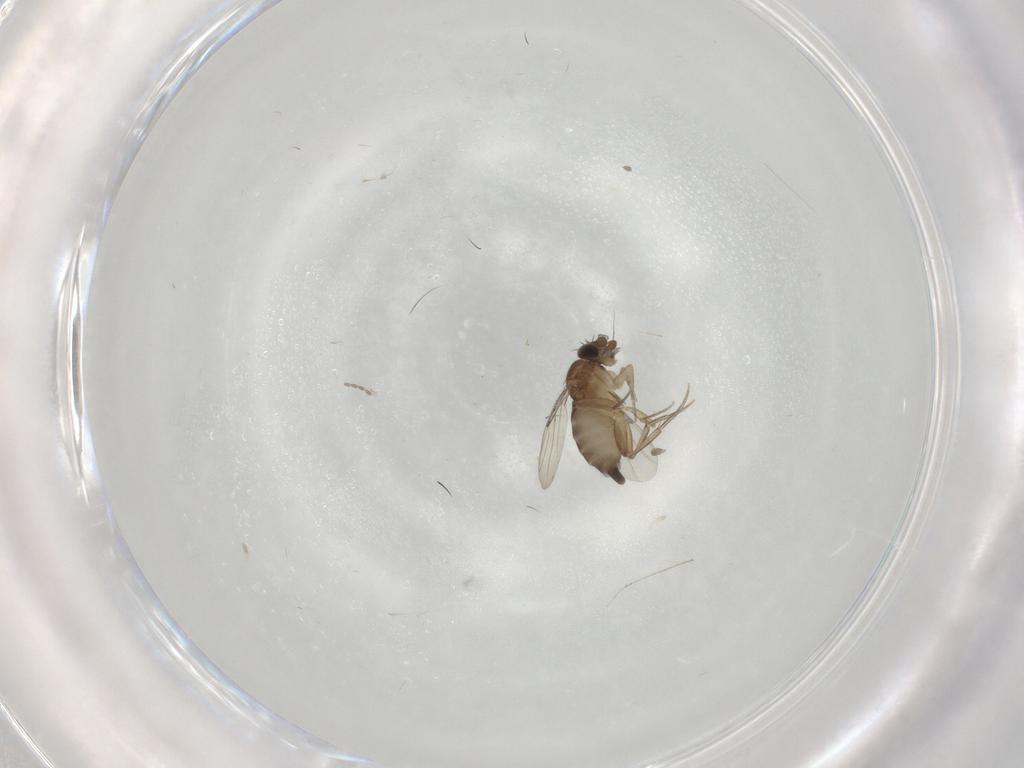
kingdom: Animalia
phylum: Arthropoda
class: Insecta
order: Diptera
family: Phoridae
